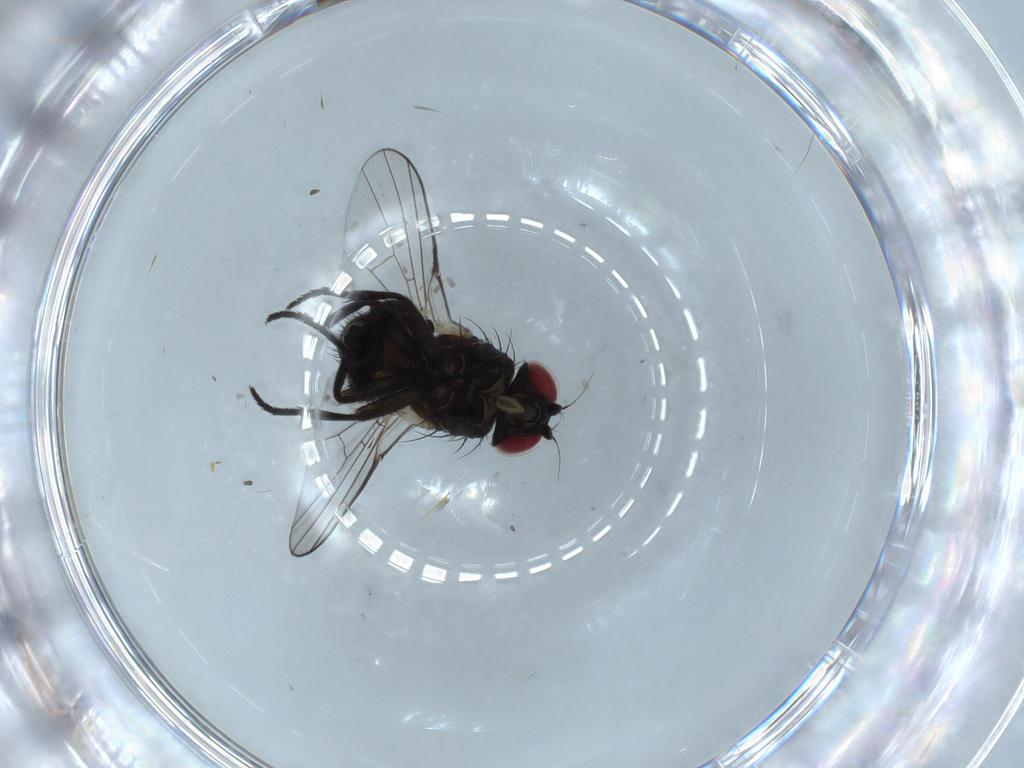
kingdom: Animalia
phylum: Arthropoda
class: Insecta
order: Diptera
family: Agromyzidae
